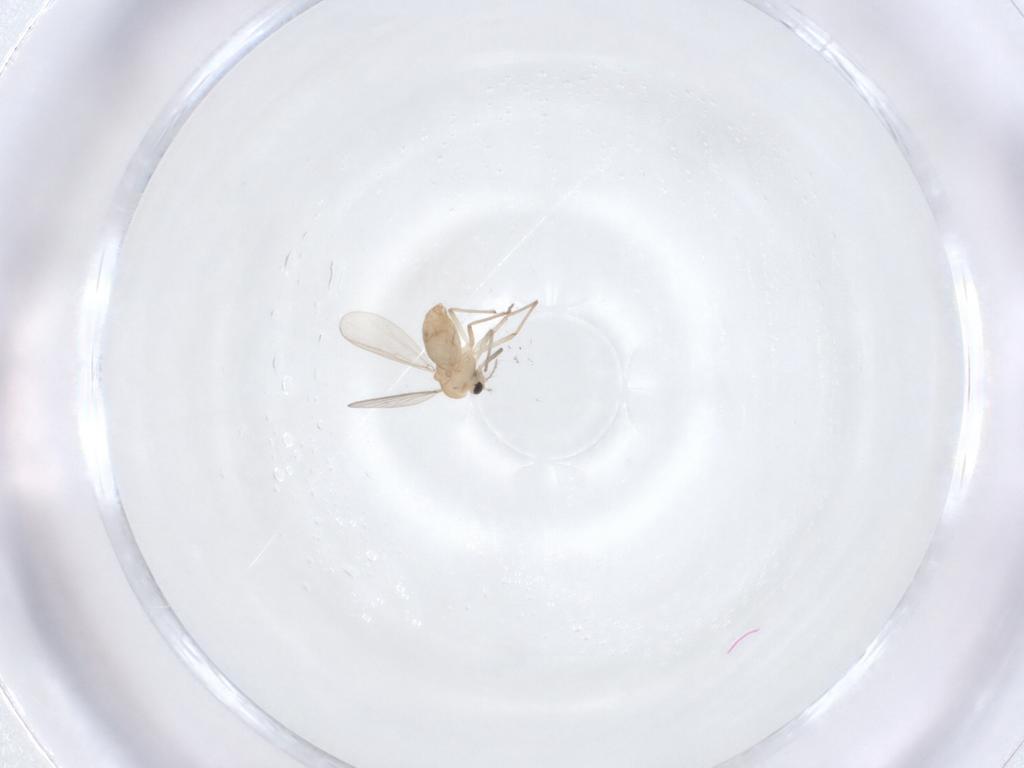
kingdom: Animalia
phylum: Arthropoda
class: Insecta
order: Diptera
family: Chironomidae
